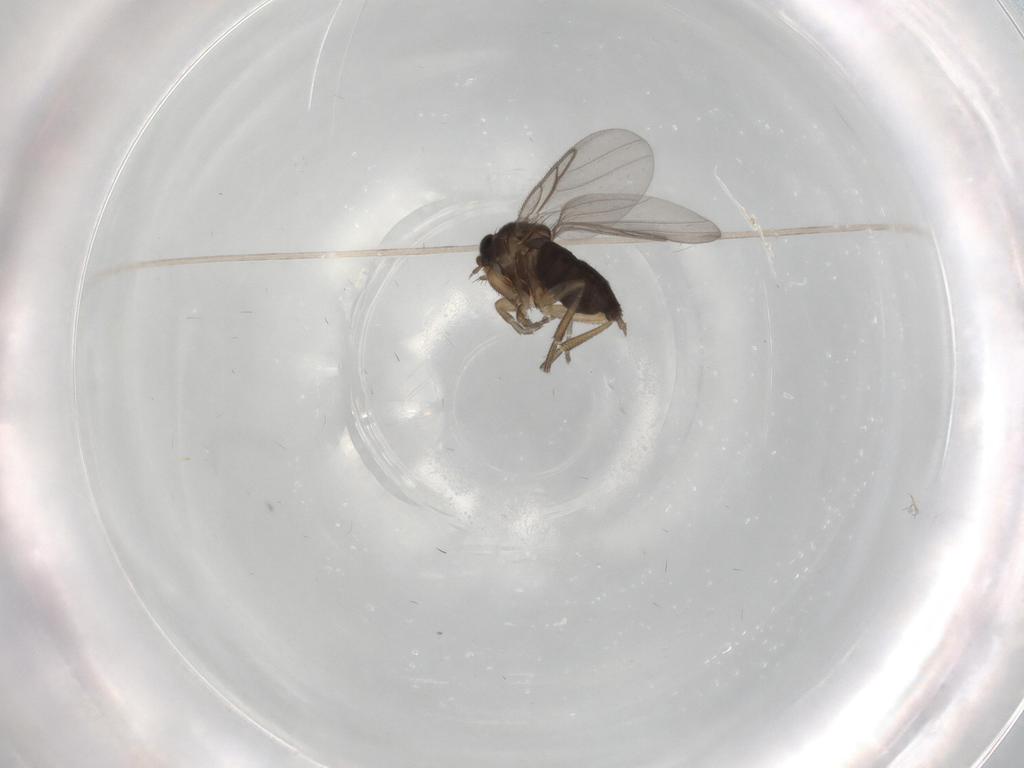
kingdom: Animalia
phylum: Arthropoda
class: Insecta
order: Diptera
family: Phoridae
